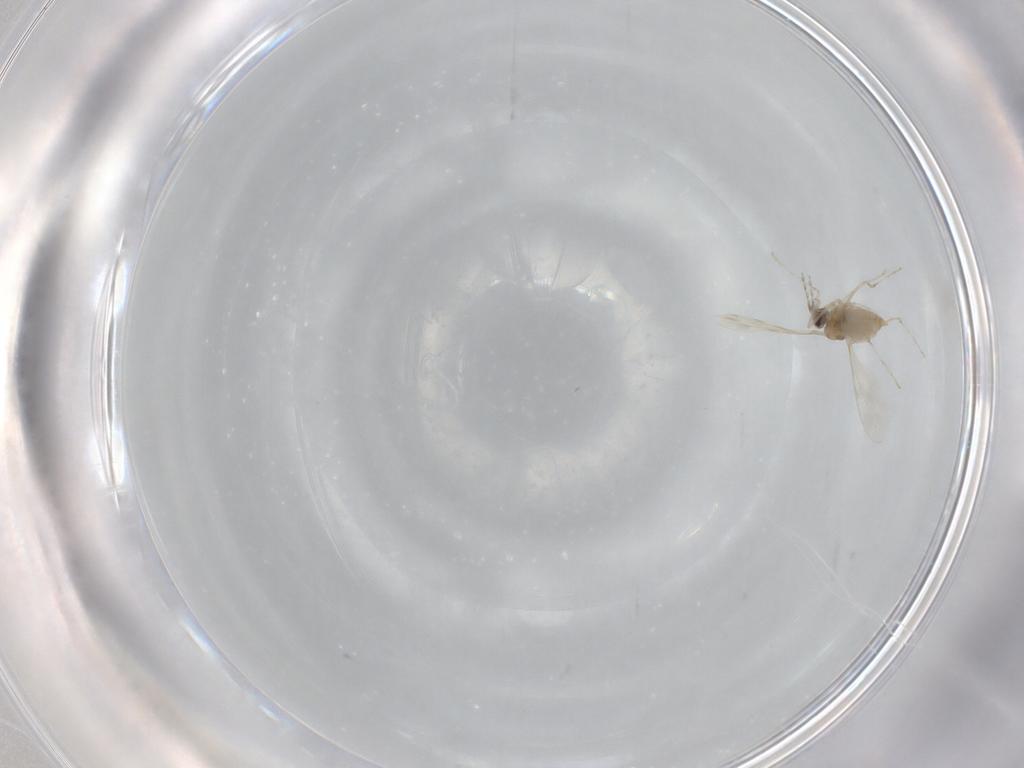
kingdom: Animalia
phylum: Arthropoda
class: Insecta
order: Diptera
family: Cecidomyiidae
